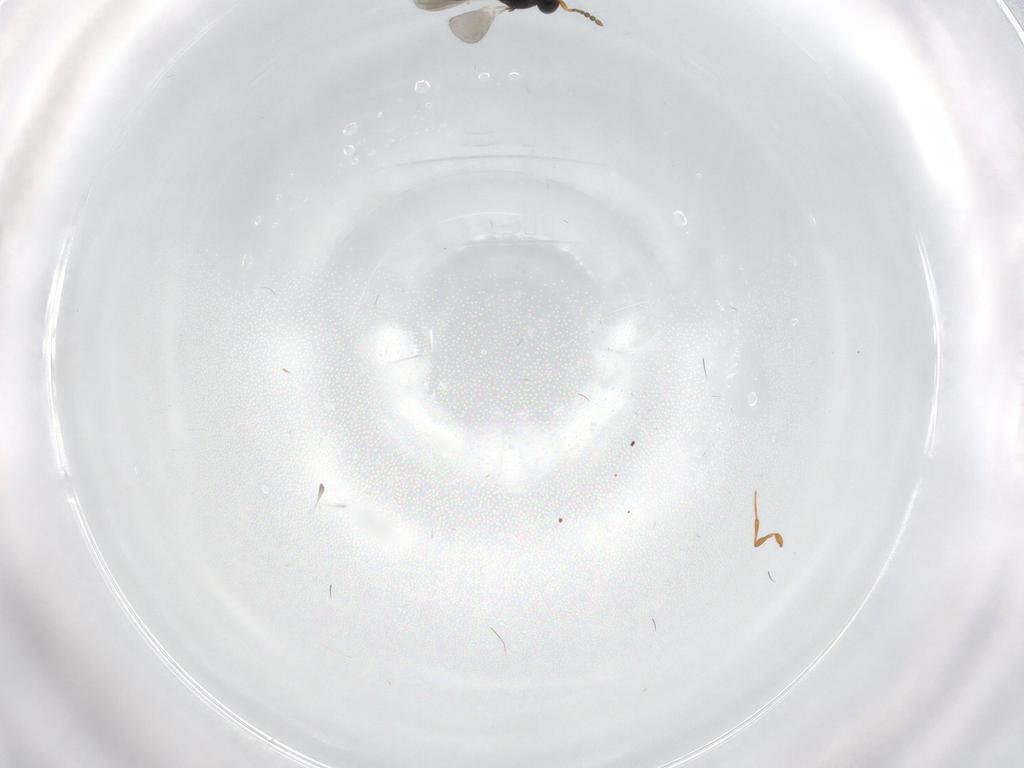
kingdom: Animalia
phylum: Arthropoda
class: Insecta
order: Hymenoptera
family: Platygastridae
